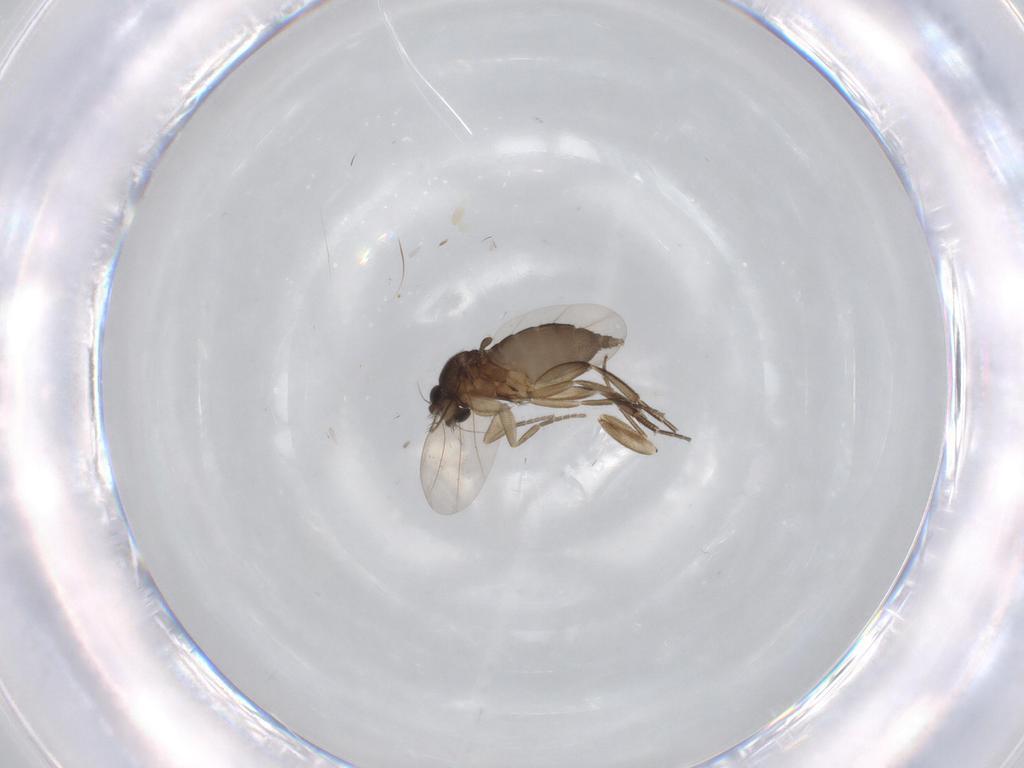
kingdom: Animalia
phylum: Arthropoda
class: Insecta
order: Diptera
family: Phoridae
